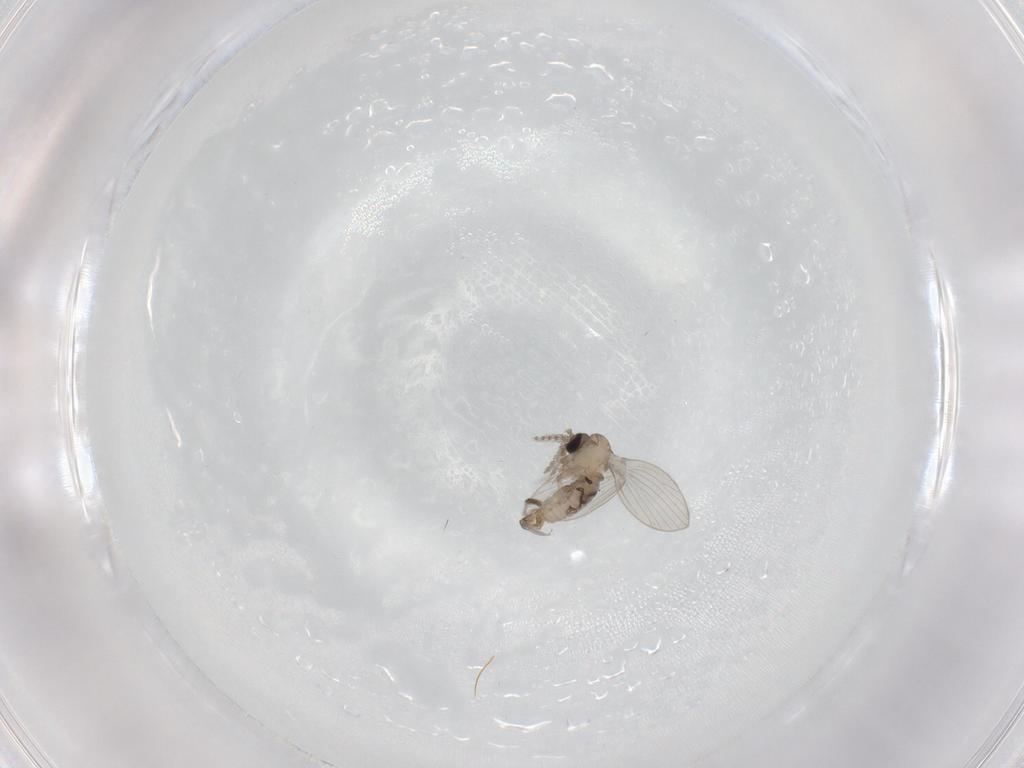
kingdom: Animalia
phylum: Arthropoda
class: Insecta
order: Diptera
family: Psychodidae
